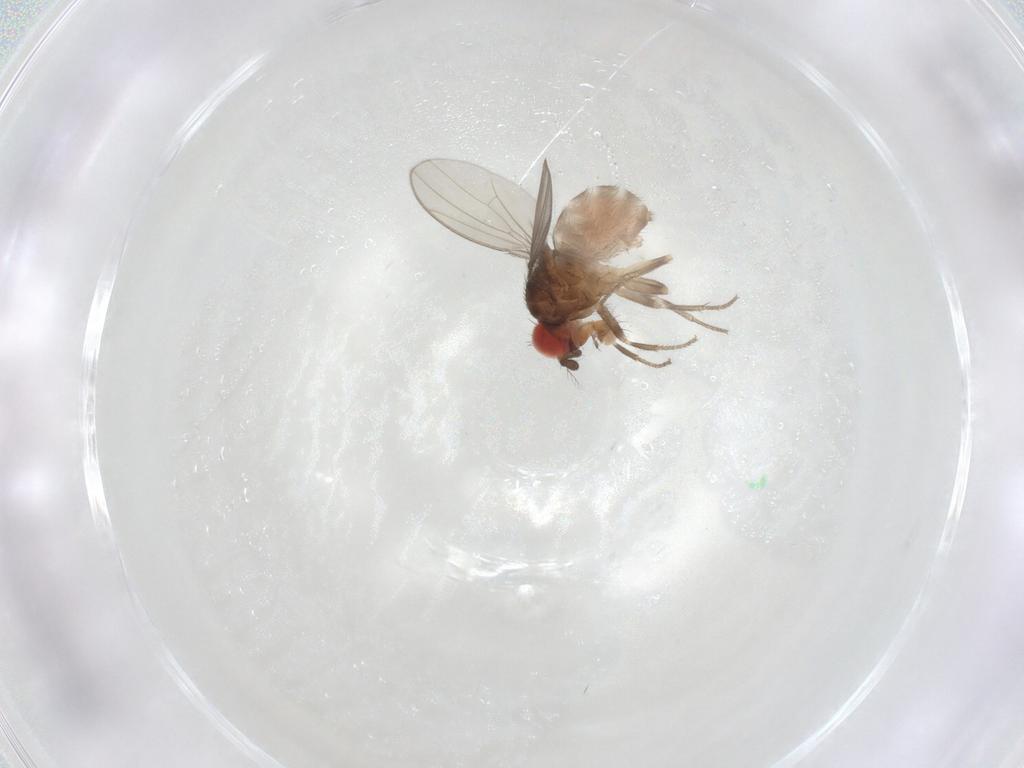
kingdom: Animalia
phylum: Arthropoda
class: Insecta
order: Diptera
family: Drosophilidae
